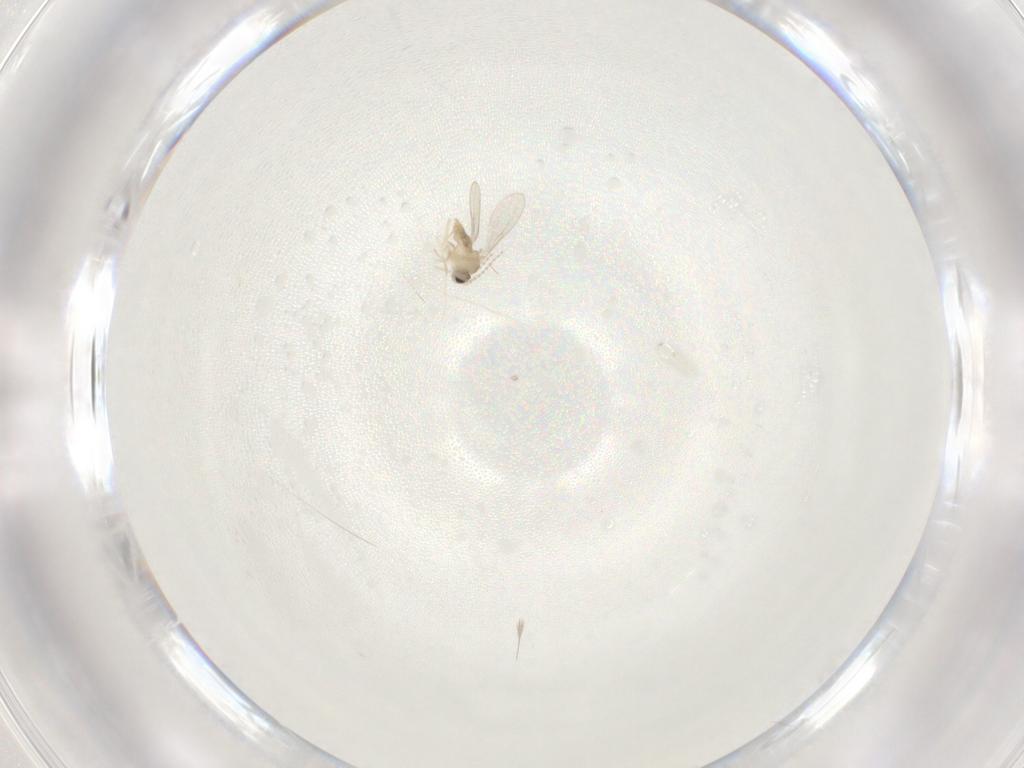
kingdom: Animalia
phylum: Arthropoda
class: Insecta
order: Diptera
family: Cecidomyiidae
